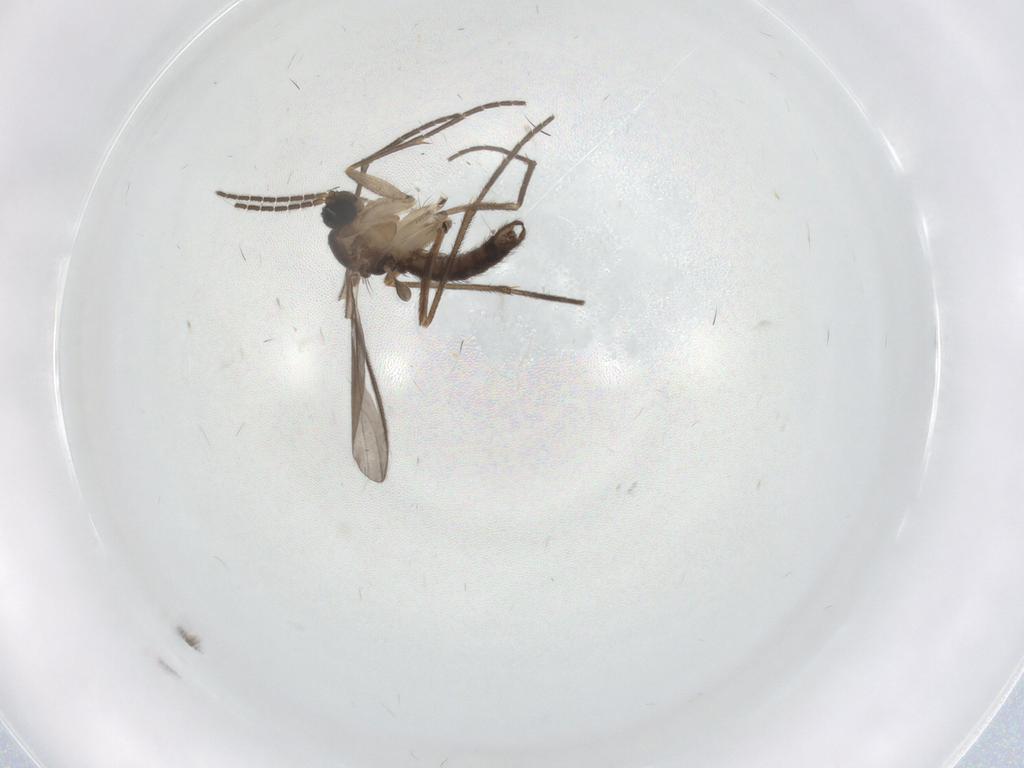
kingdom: Animalia
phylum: Arthropoda
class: Insecta
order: Diptera
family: Sciaridae
